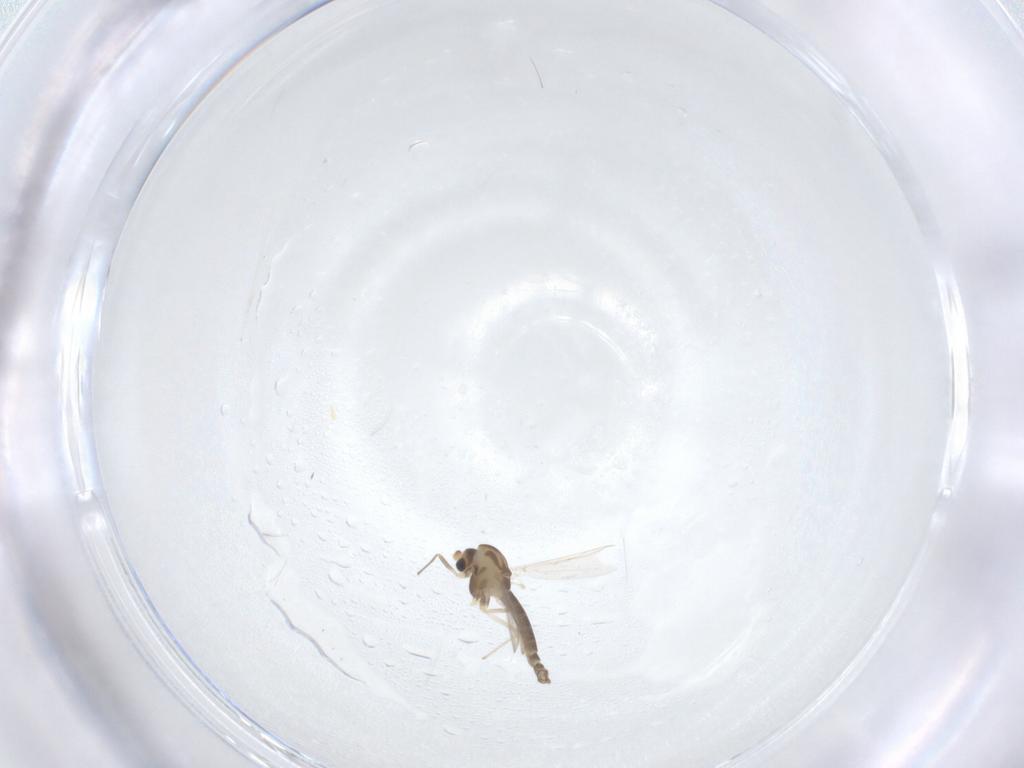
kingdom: Animalia
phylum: Arthropoda
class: Insecta
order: Diptera
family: Chironomidae
